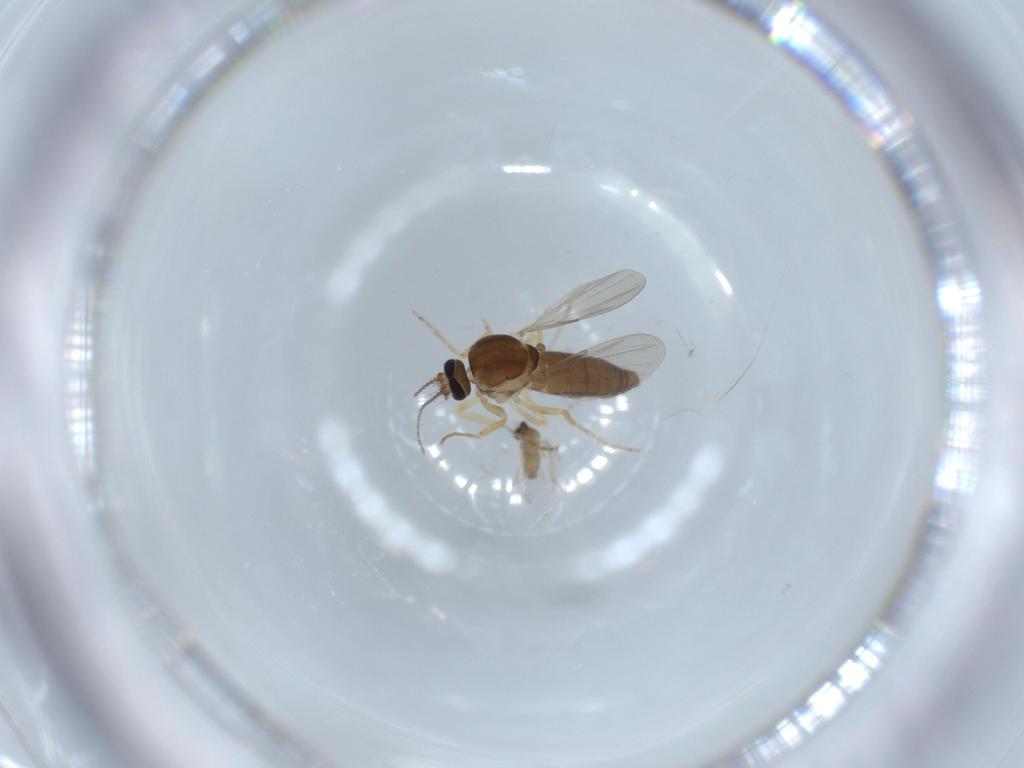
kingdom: Animalia
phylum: Arthropoda
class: Insecta
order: Diptera
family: Ceratopogonidae
